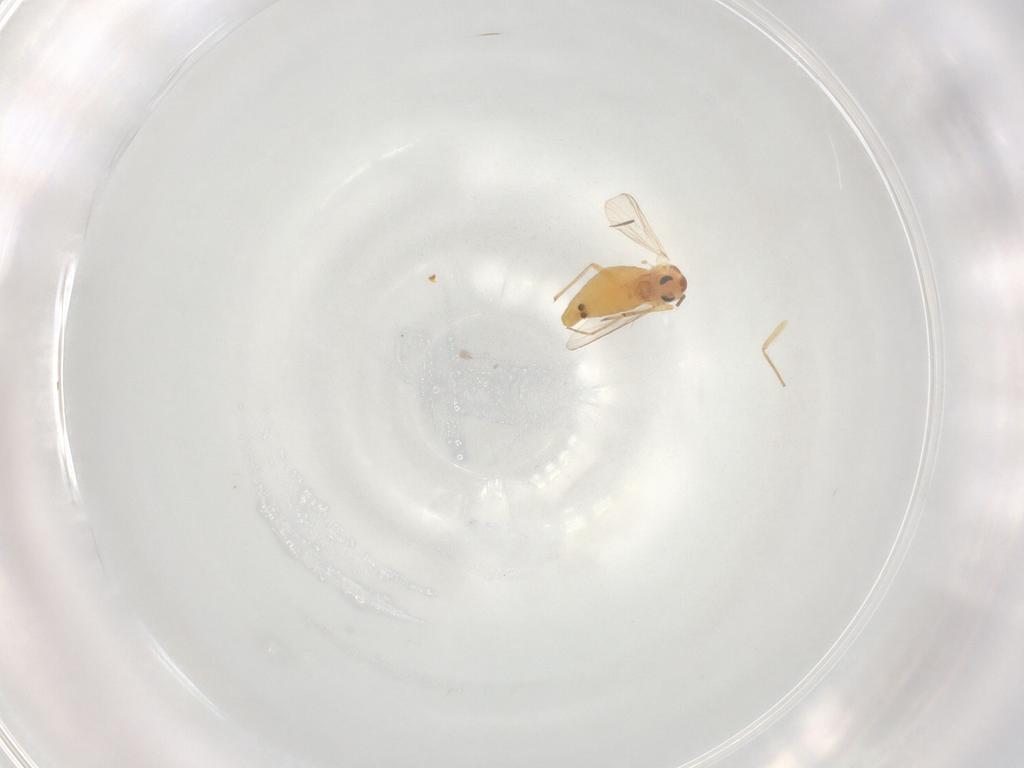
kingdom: Animalia
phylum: Arthropoda
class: Insecta
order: Diptera
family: Chironomidae
